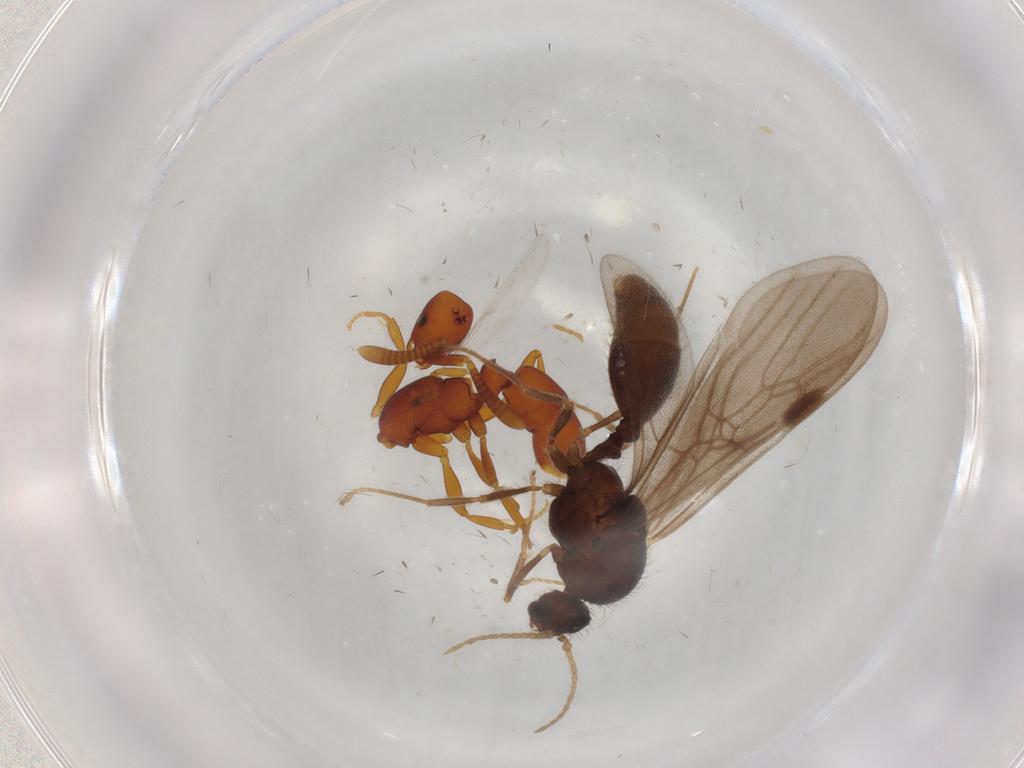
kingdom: Animalia
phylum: Arthropoda
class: Insecta
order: Hymenoptera
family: Formicidae
